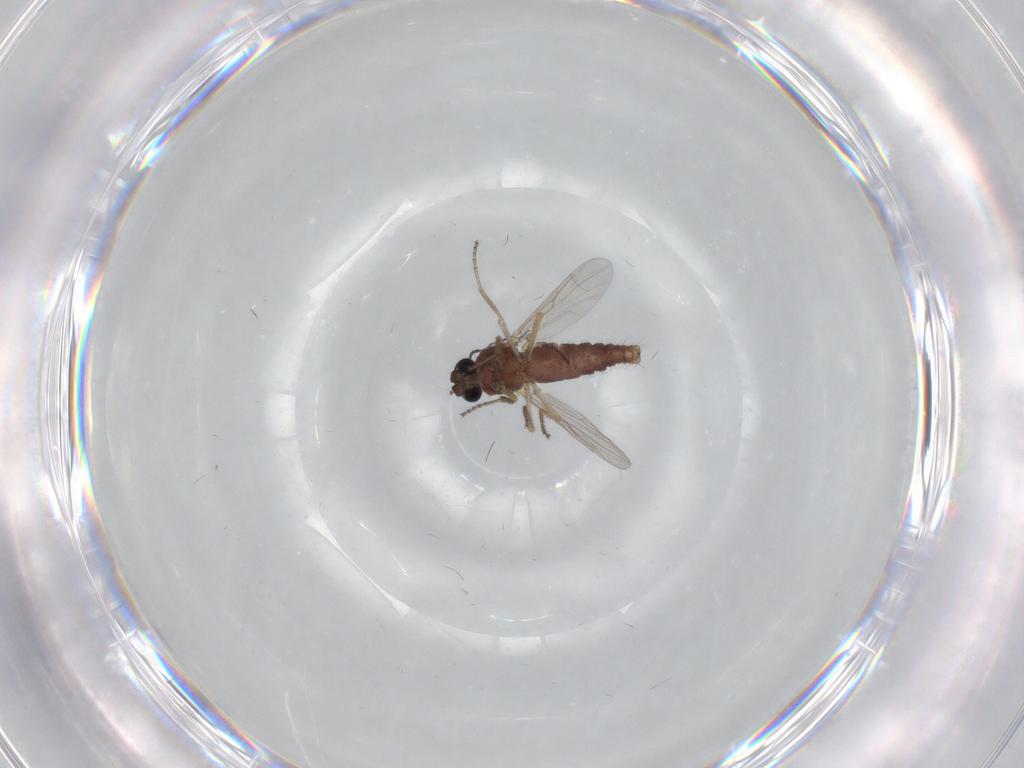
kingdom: Animalia
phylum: Arthropoda
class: Insecta
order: Diptera
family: Ceratopogonidae
